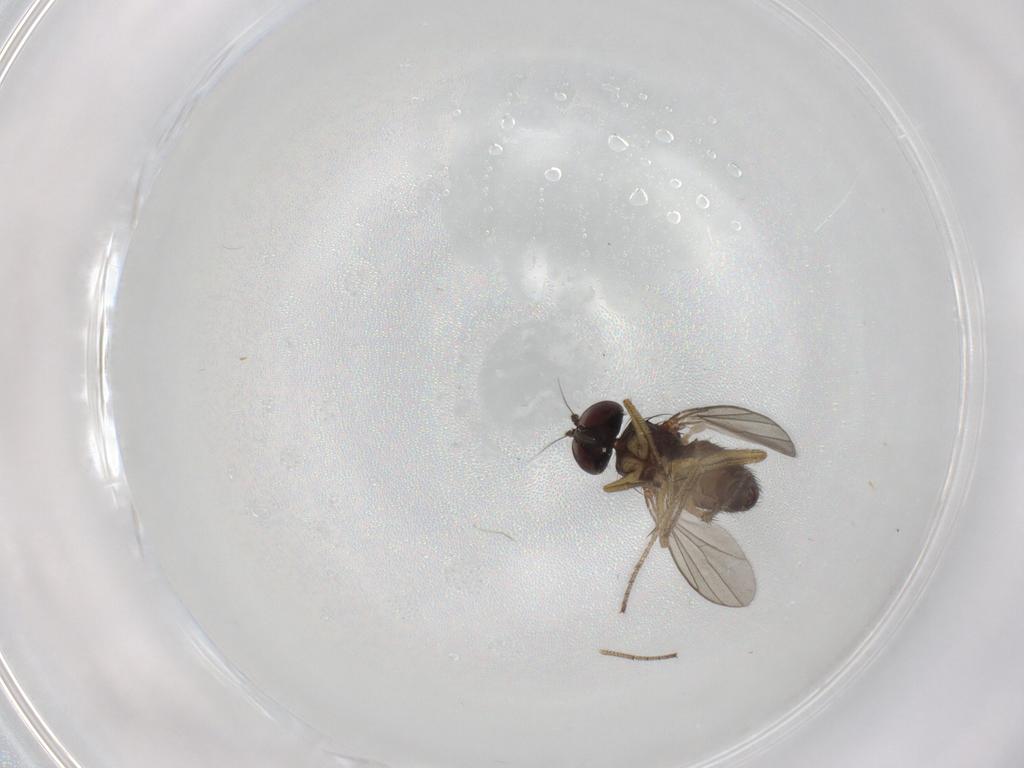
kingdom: Animalia
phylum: Arthropoda
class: Insecta
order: Diptera
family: Dolichopodidae
